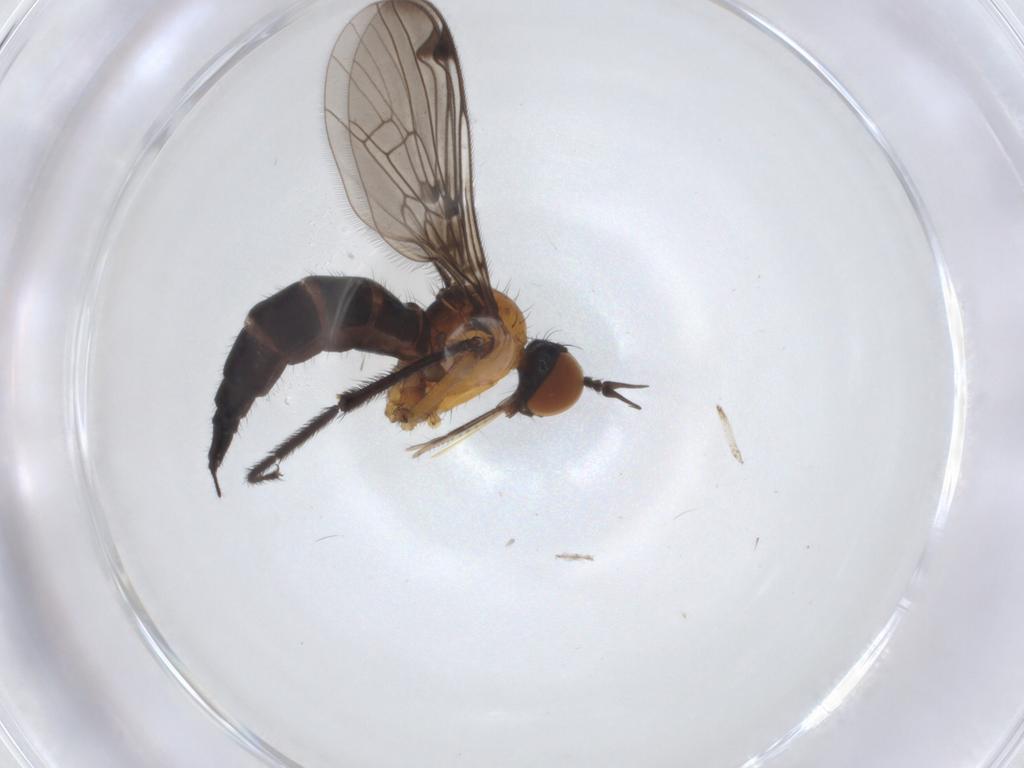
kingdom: Animalia
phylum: Arthropoda
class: Insecta
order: Diptera
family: Empididae
